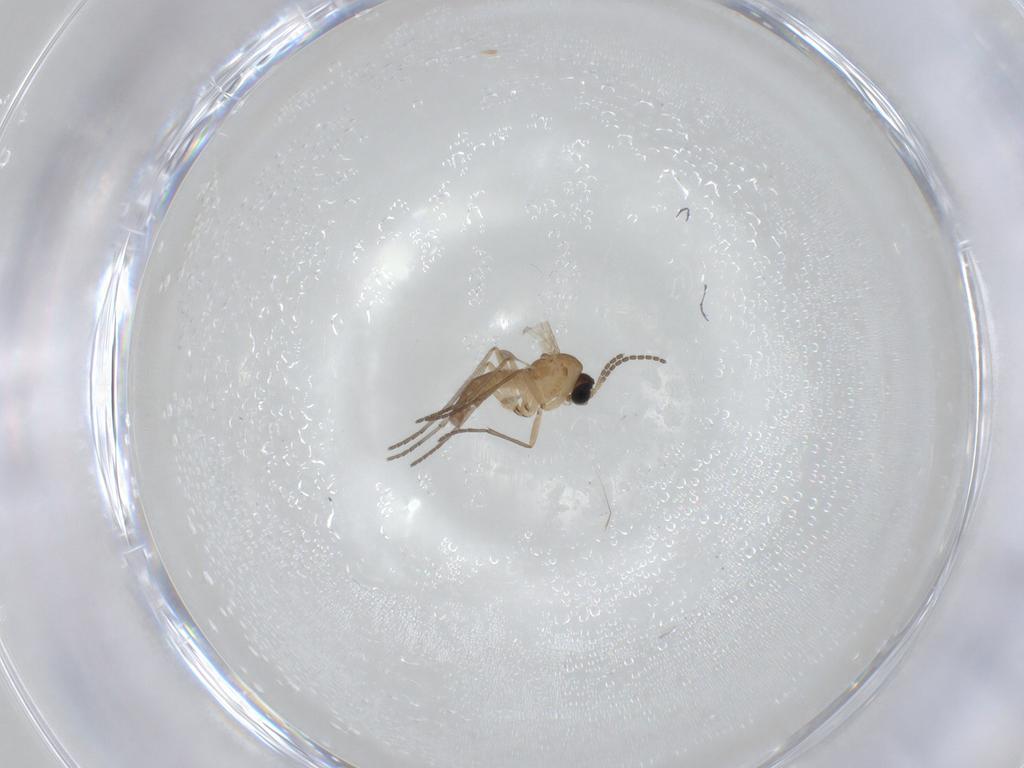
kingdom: Animalia
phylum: Arthropoda
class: Insecta
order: Diptera
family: Sciaridae
